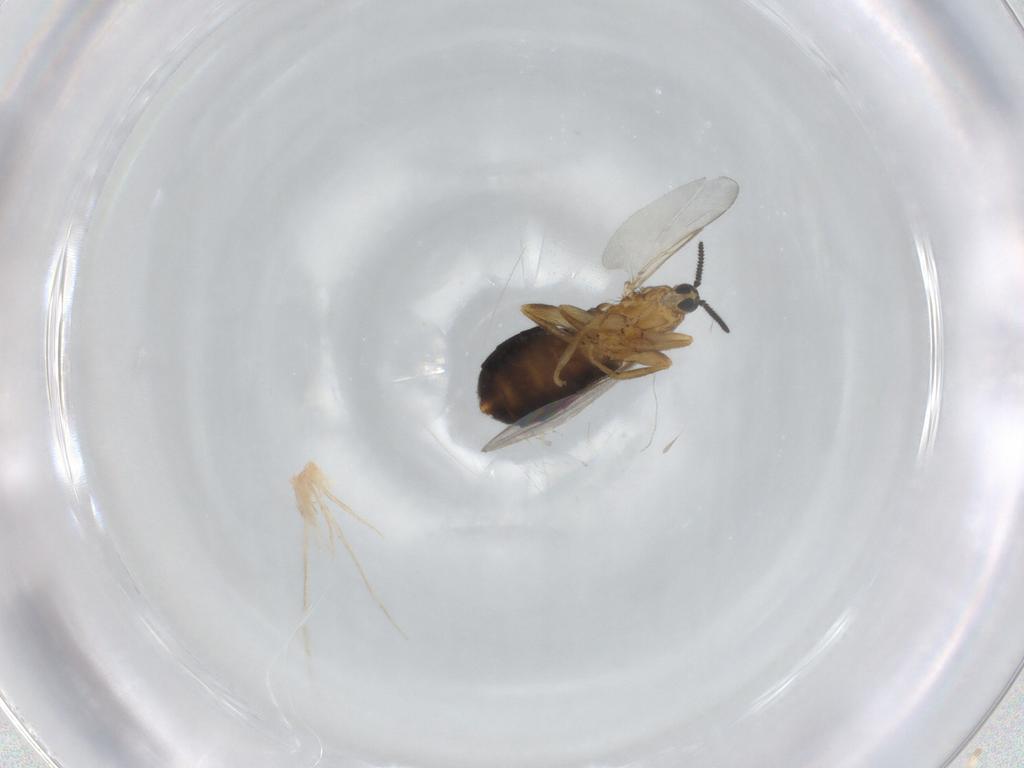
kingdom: Animalia
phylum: Arthropoda
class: Insecta
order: Diptera
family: Scatopsidae
